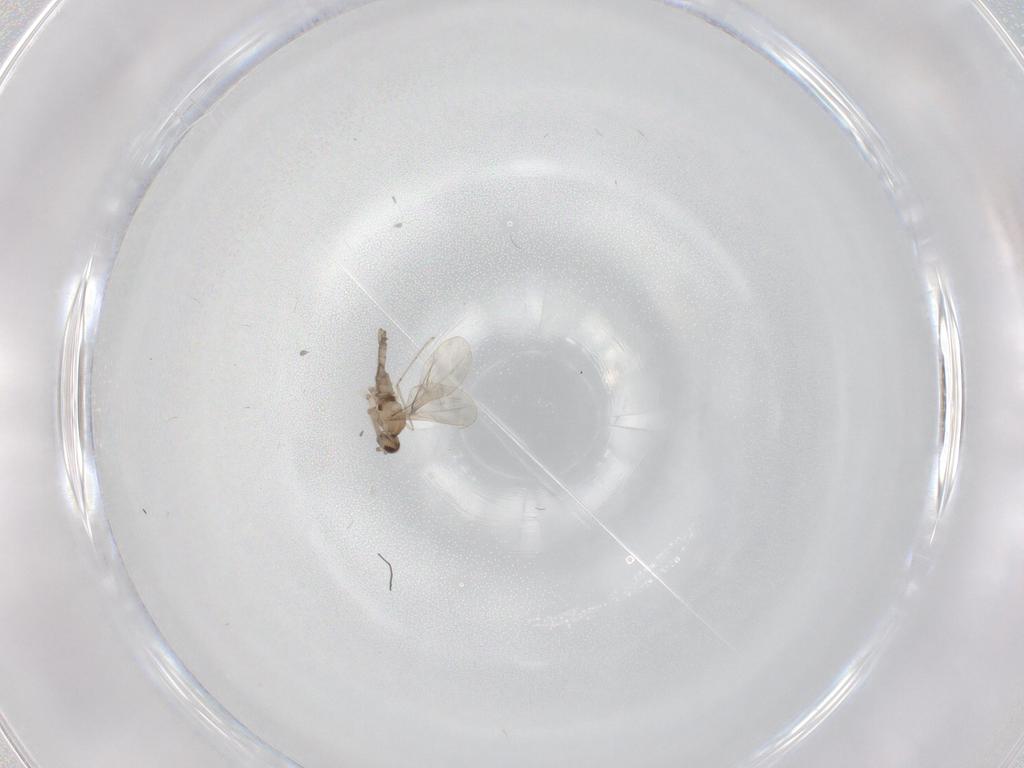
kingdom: Animalia
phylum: Arthropoda
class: Insecta
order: Diptera
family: Cecidomyiidae
